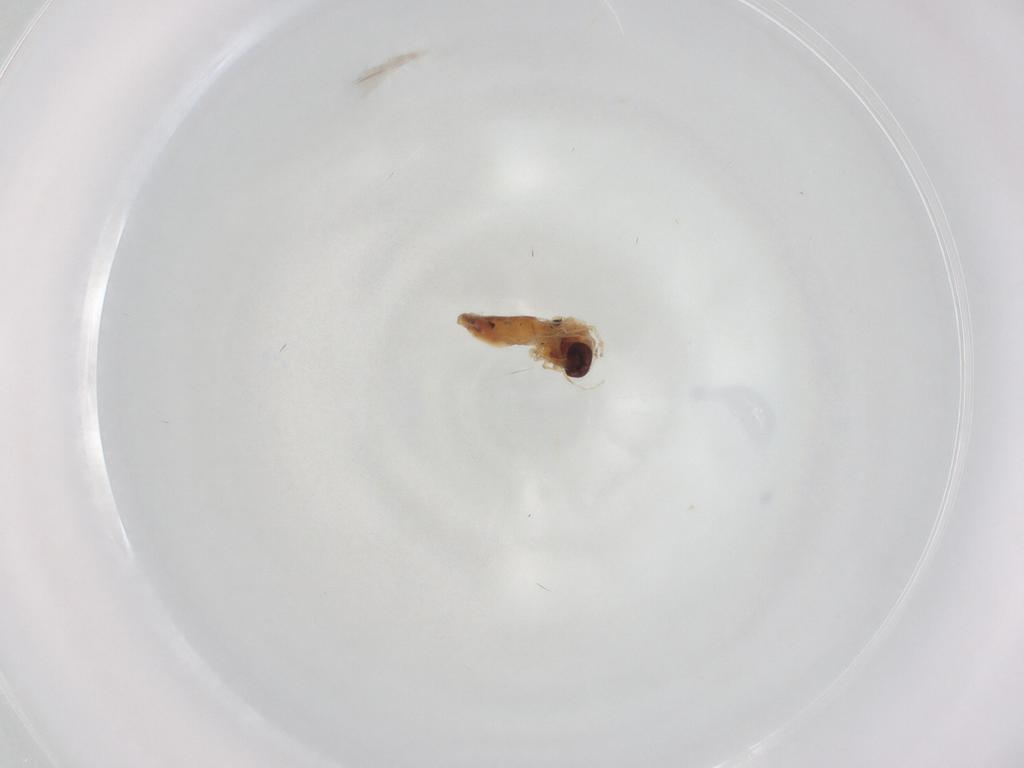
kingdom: Animalia
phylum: Arthropoda
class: Insecta
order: Diptera
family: Ceratopogonidae
